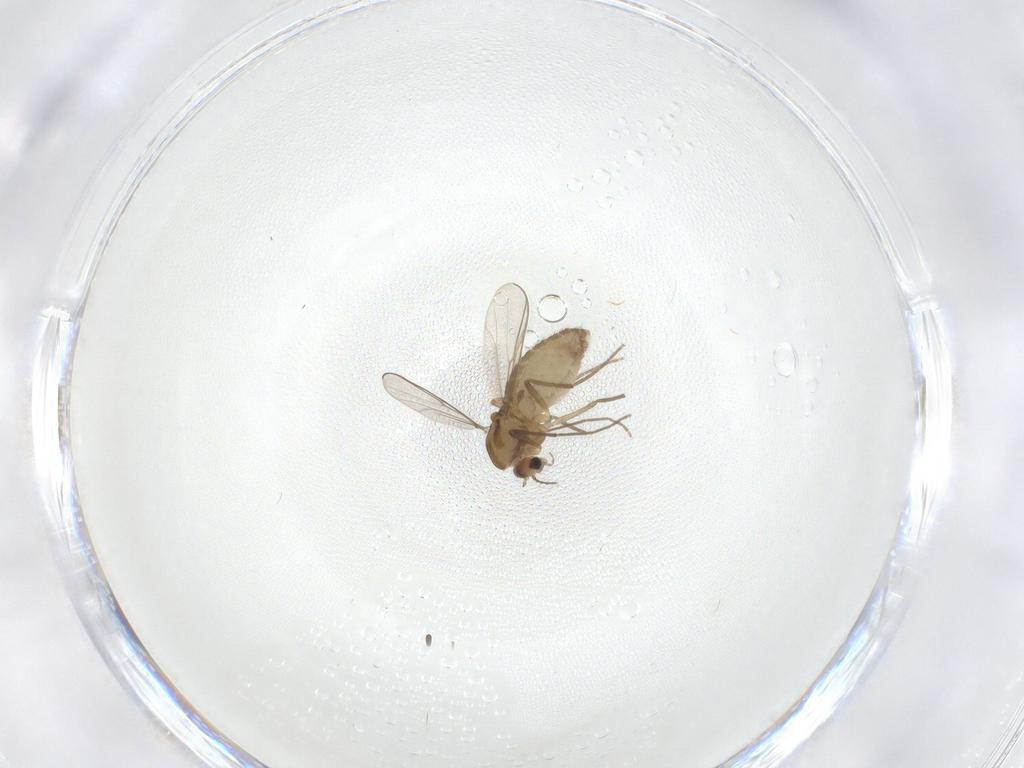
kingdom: Animalia
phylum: Arthropoda
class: Insecta
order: Diptera
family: Chironomidae
